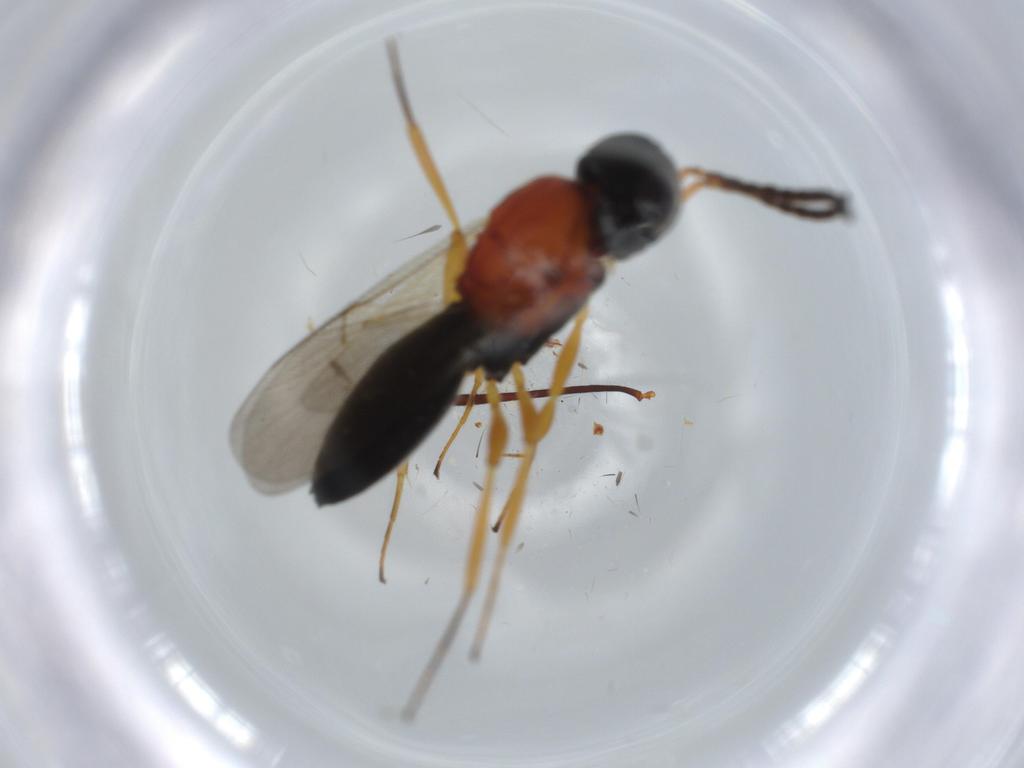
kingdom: Animalia
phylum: Arthropoda
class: Insecta
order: Hymenoptera
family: Scelionidae
